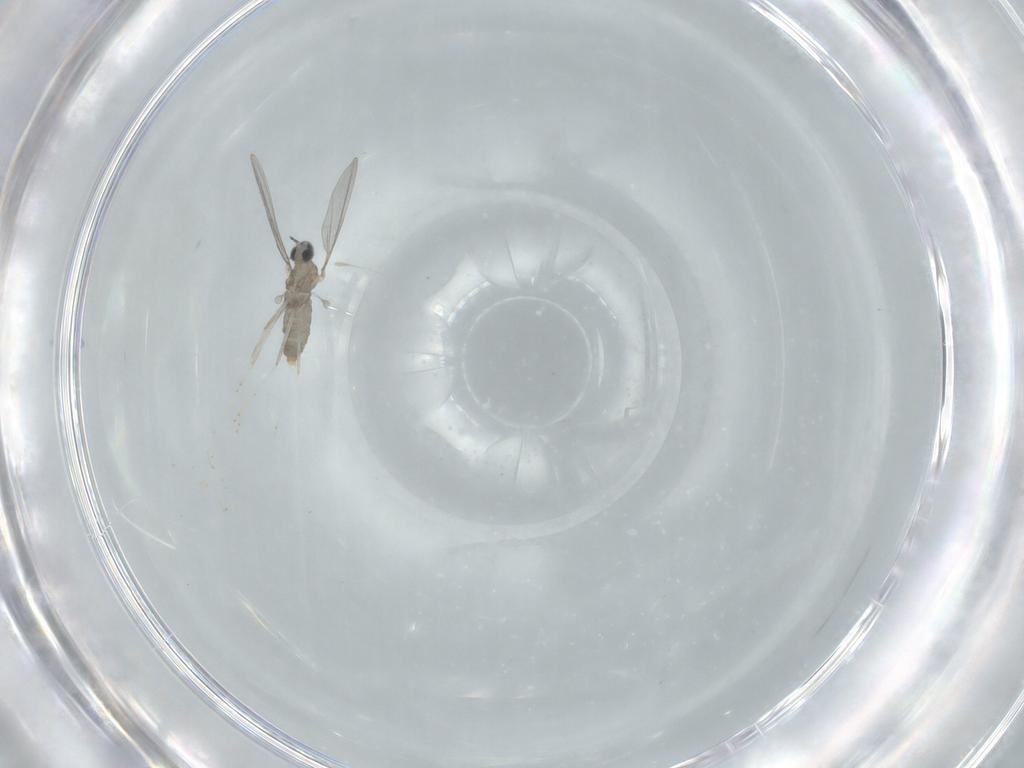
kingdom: Animalia
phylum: Arthropoda
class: Insecta
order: Diptera
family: Cecidomyiidae
